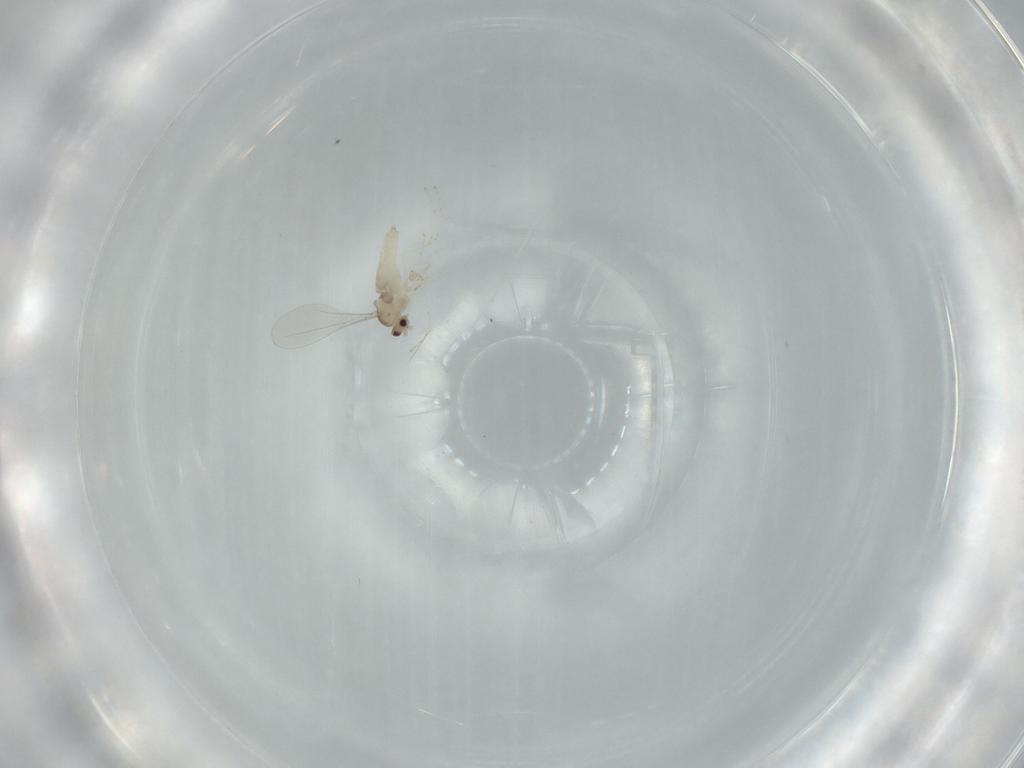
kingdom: Animalia
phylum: Arthropoda
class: Insecta
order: Diptera
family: Cecidomyiidae
